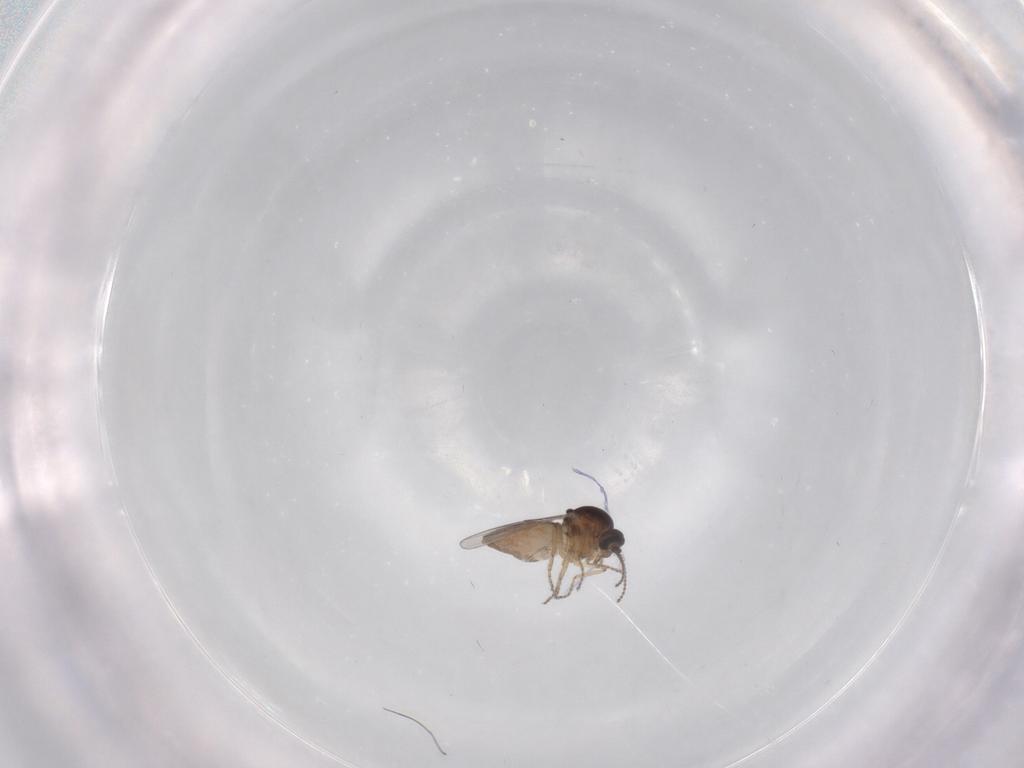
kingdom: Animalia
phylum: Arthropoda
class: Insecta
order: Diptera
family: Ceratopogonidae
